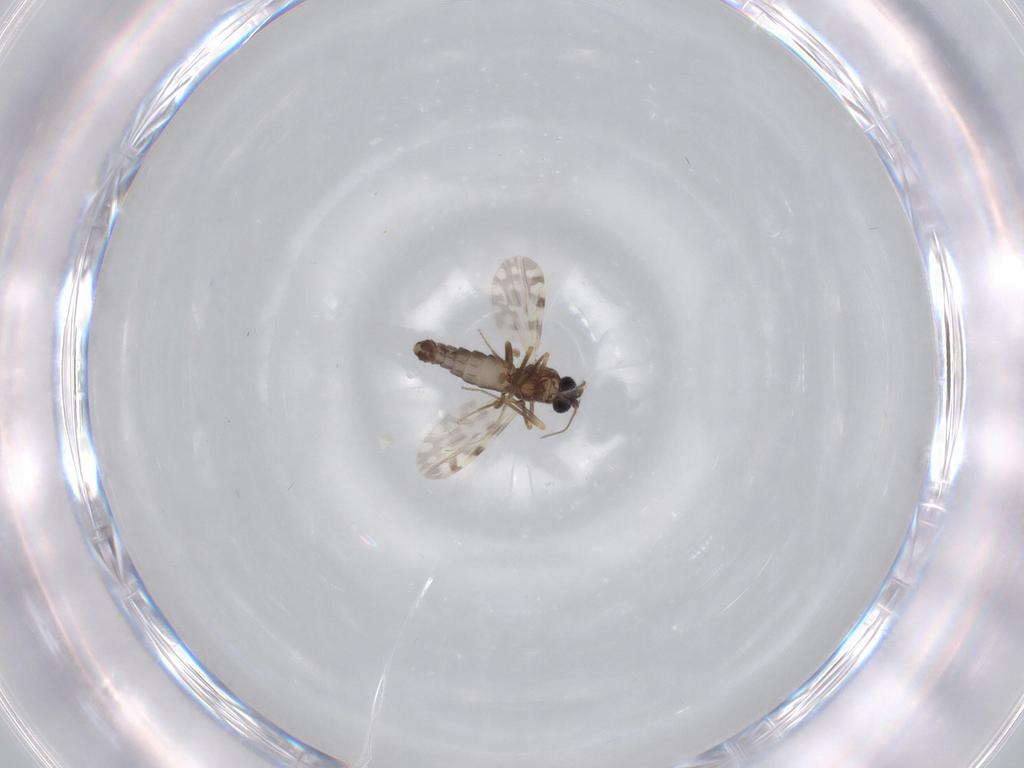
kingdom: Animalia
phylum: Arthropoda
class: Insecta
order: Diptera
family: Ceratopogonidae
